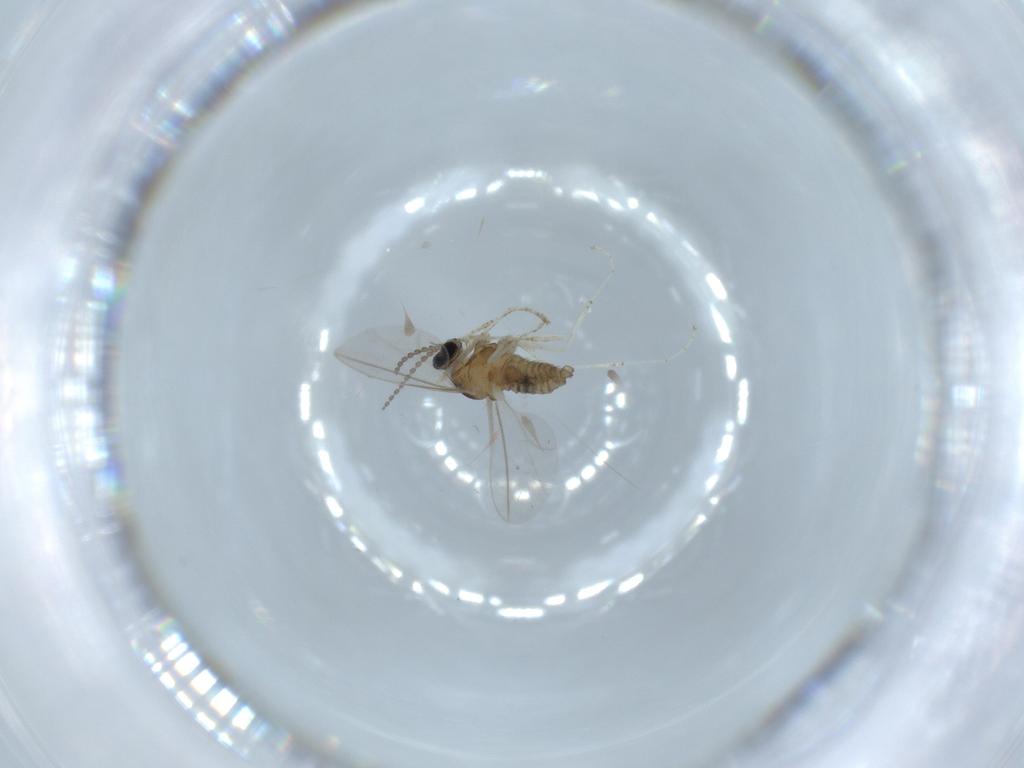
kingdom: Animalia
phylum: Arthropoda
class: Insecta
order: Diptera
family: Cecidomyiidae
